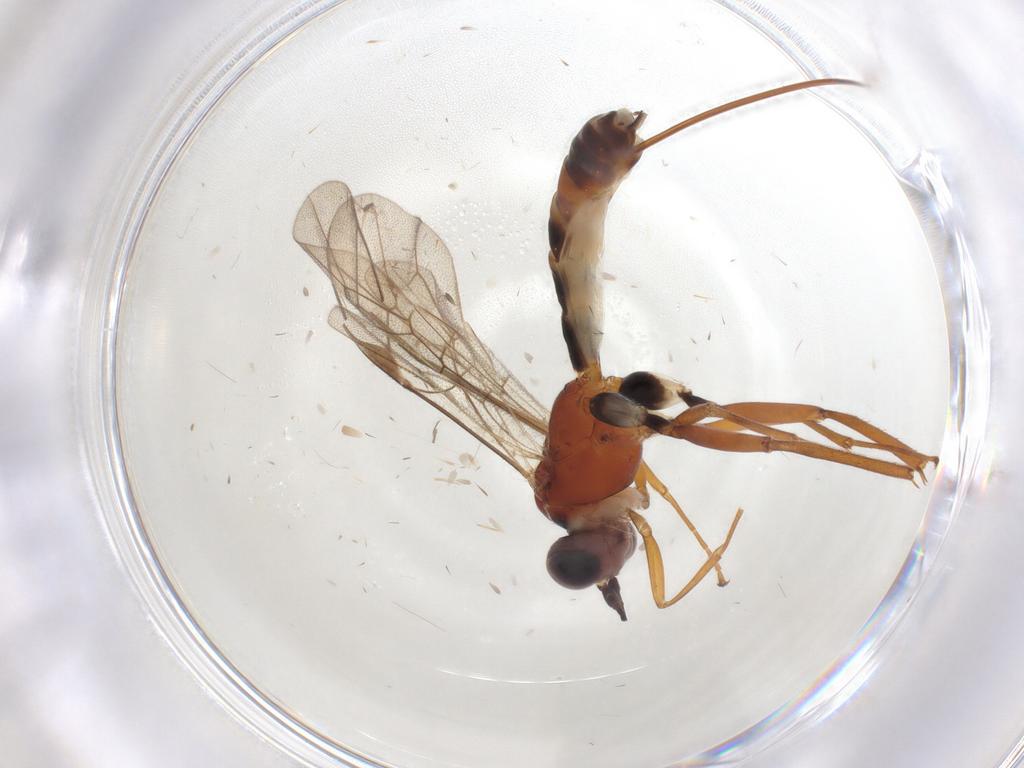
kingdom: Animalia
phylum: Arthropoda
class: Insecta
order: Hymenoptera
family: Ichneumonidae
